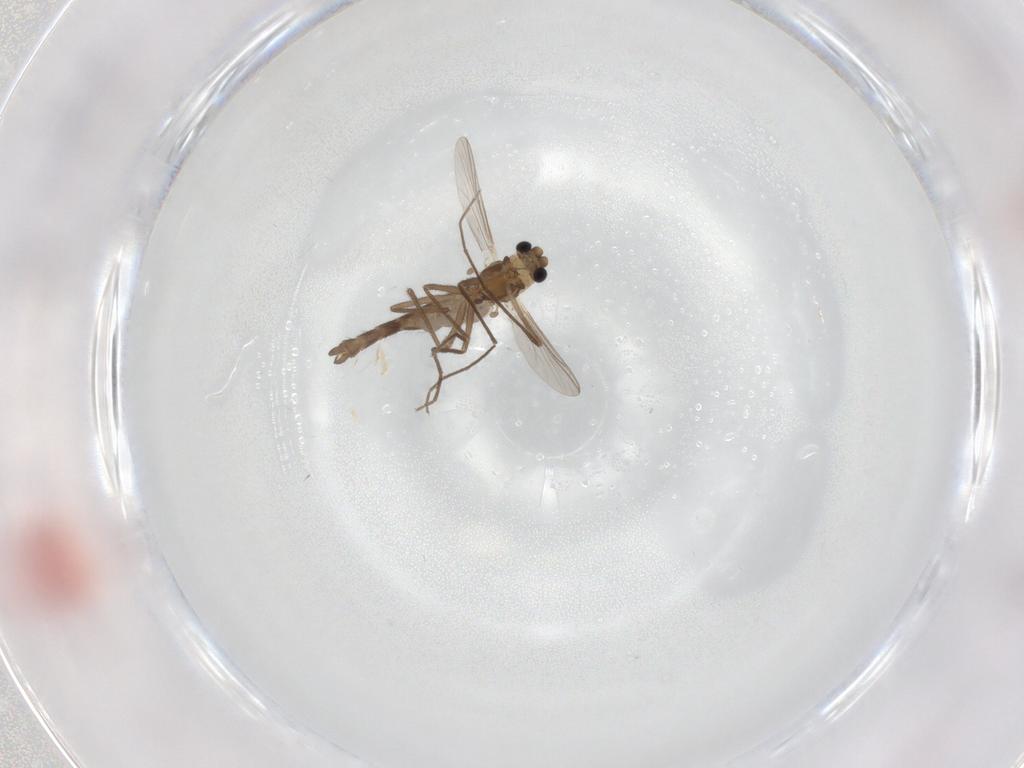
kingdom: Animalia
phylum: Arthropoda
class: Insecta
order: Diptera
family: Chironomidae
